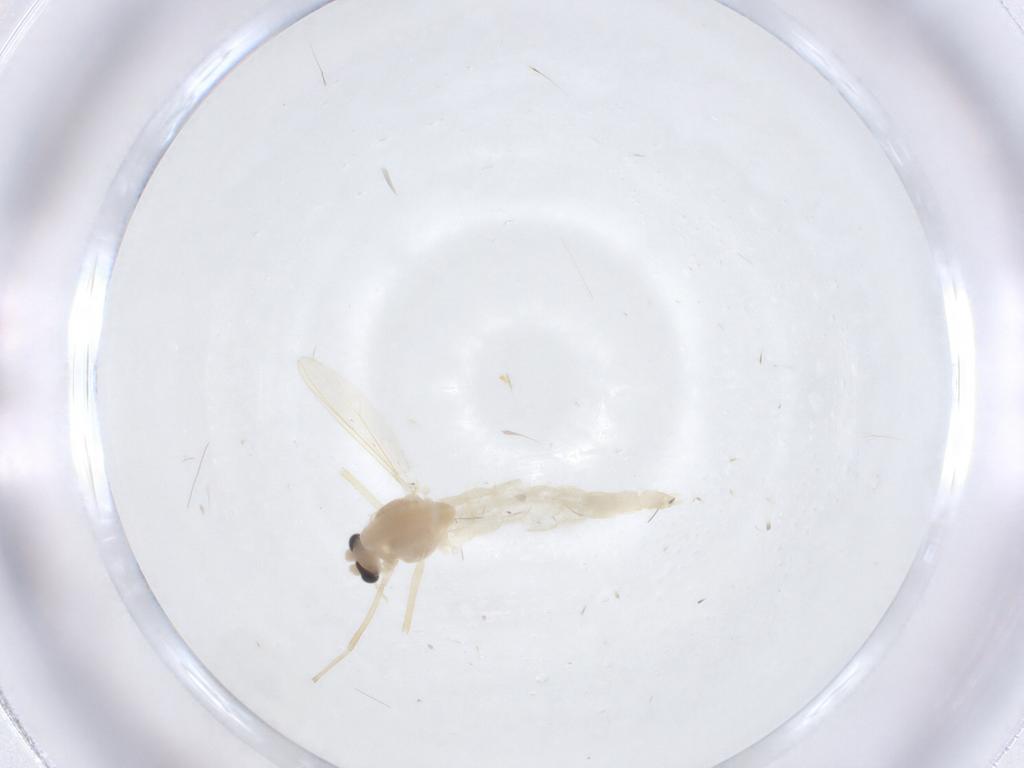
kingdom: Animalia
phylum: Arthropoda
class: Insecta
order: Diptera
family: Chironomidae
